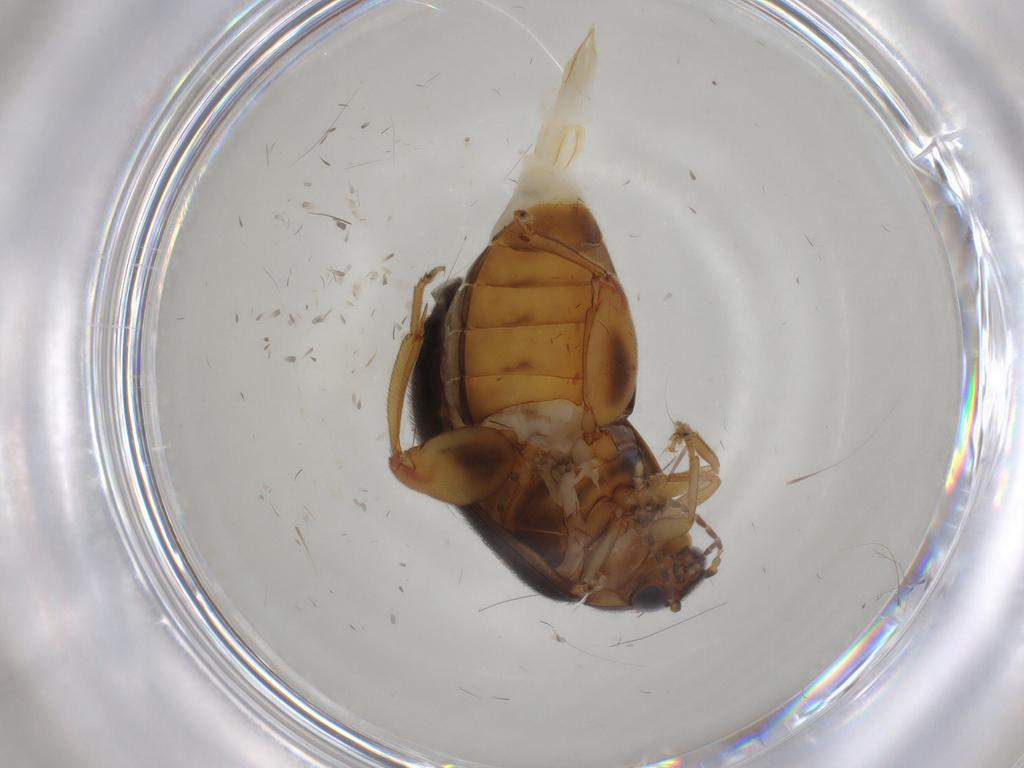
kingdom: Animalia
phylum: Arthropoda
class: Insecta
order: Coleoptera
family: Scirtidae
